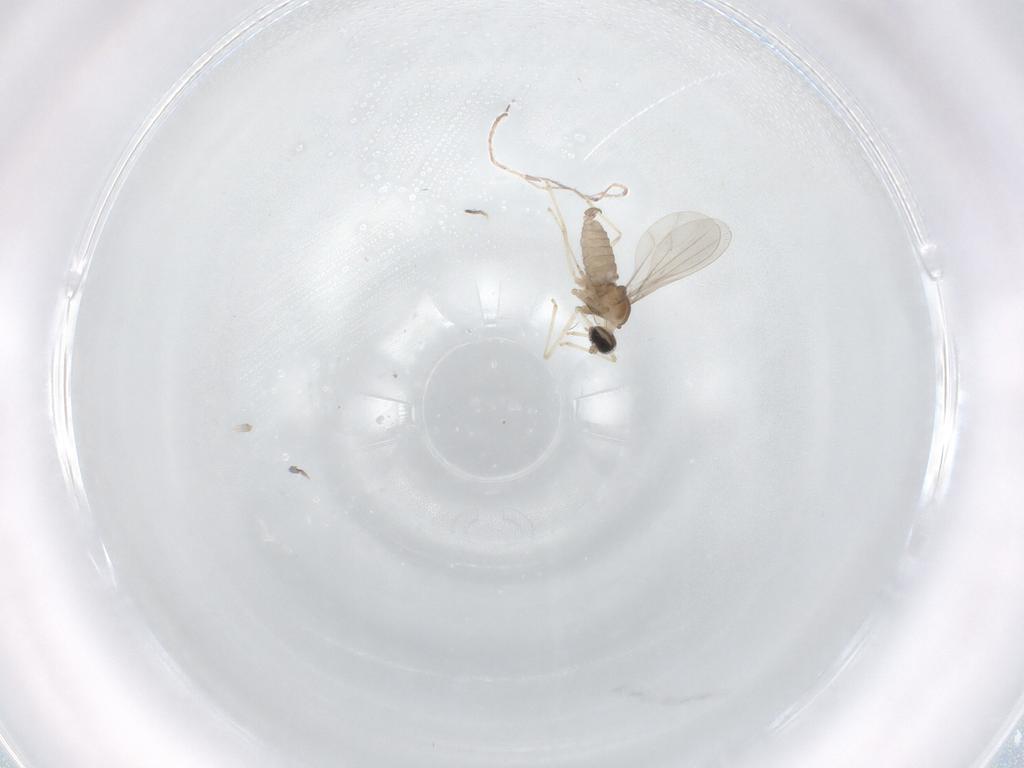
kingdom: Animalia
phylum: Arthropoda
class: Insecta
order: Diptera
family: Cecidomyiidae
